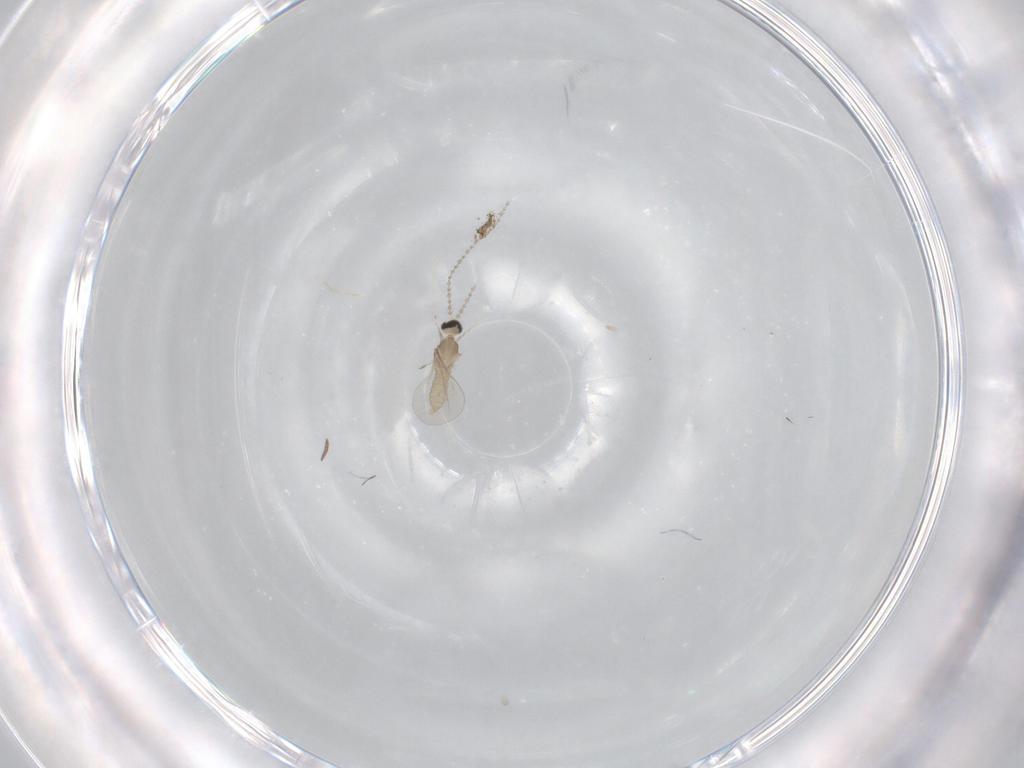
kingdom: Animalia
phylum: Arthropoda
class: Insecta
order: Diptera
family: Cecidomyiidae
